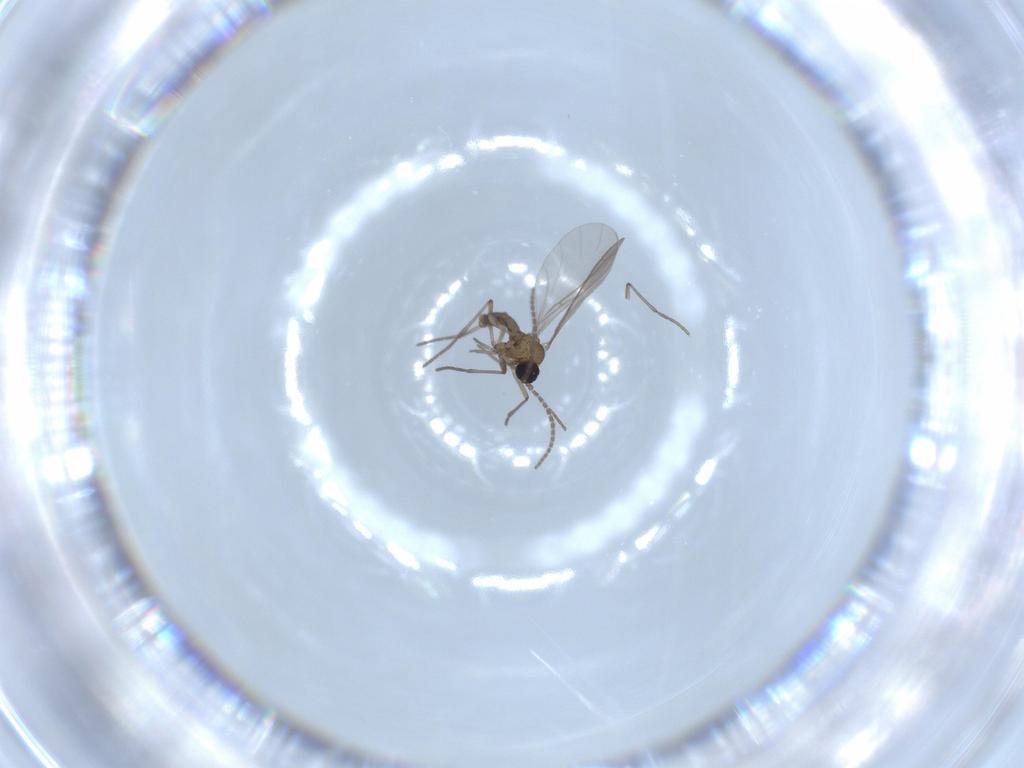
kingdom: Animalia
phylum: Arthropoda
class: Insecta
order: Diptera
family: Sciaridae
